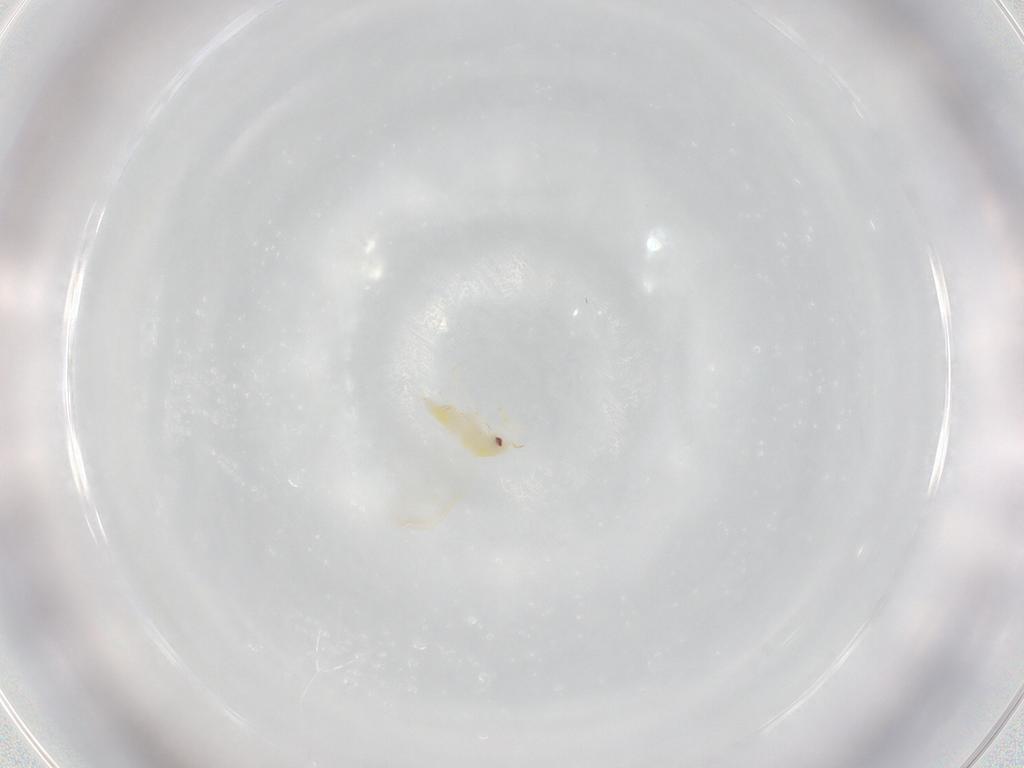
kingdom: Animalia
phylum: Arthropoda
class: Insecta
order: Hemiptera
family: Aleyrodidae
